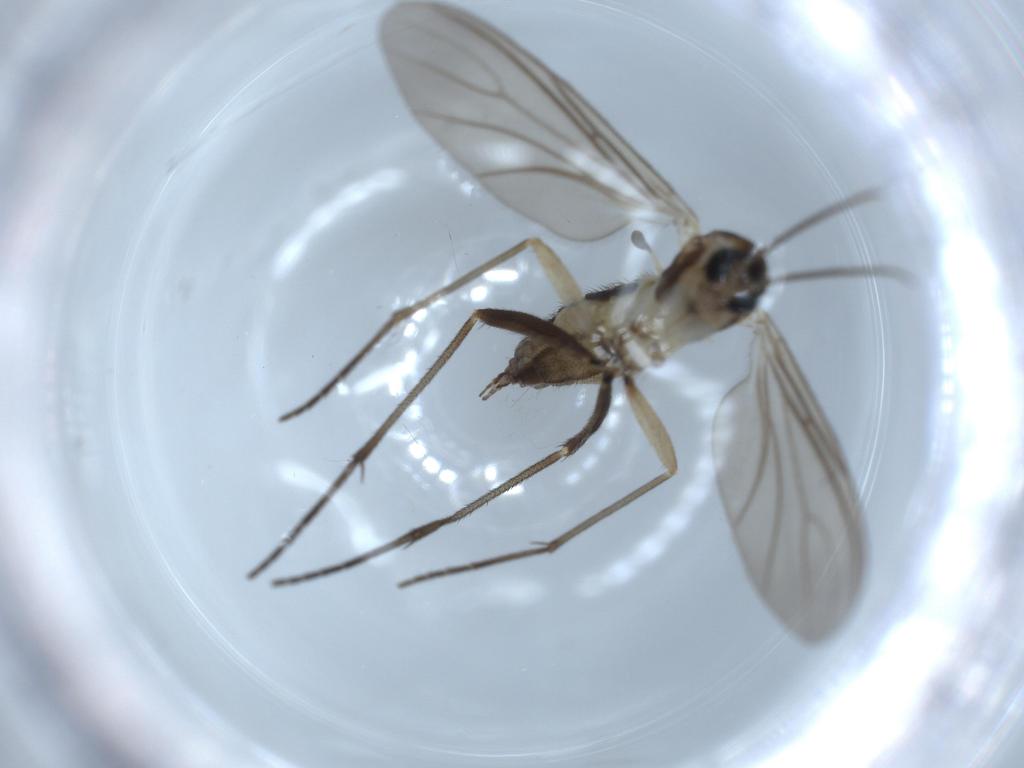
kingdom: Animalia
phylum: Arthropoda
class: Insecta
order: Diptera
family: Sciaridae
